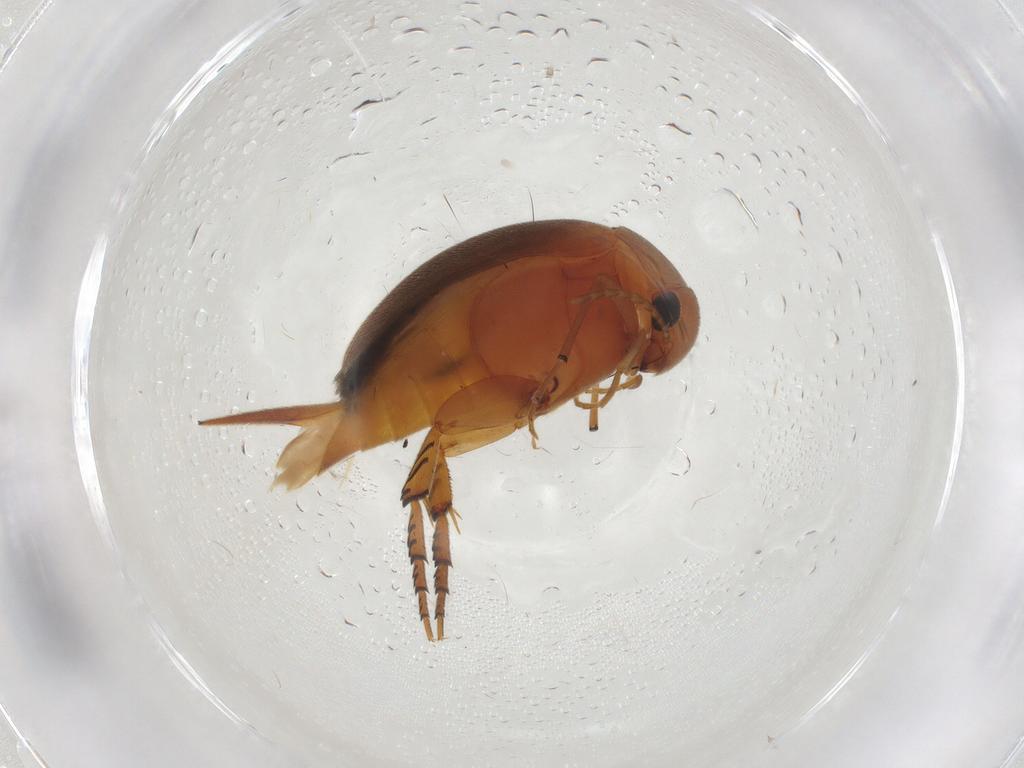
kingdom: Animalia
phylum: Arthropoda
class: Insecta
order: Coleoptera
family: Mordellidae
